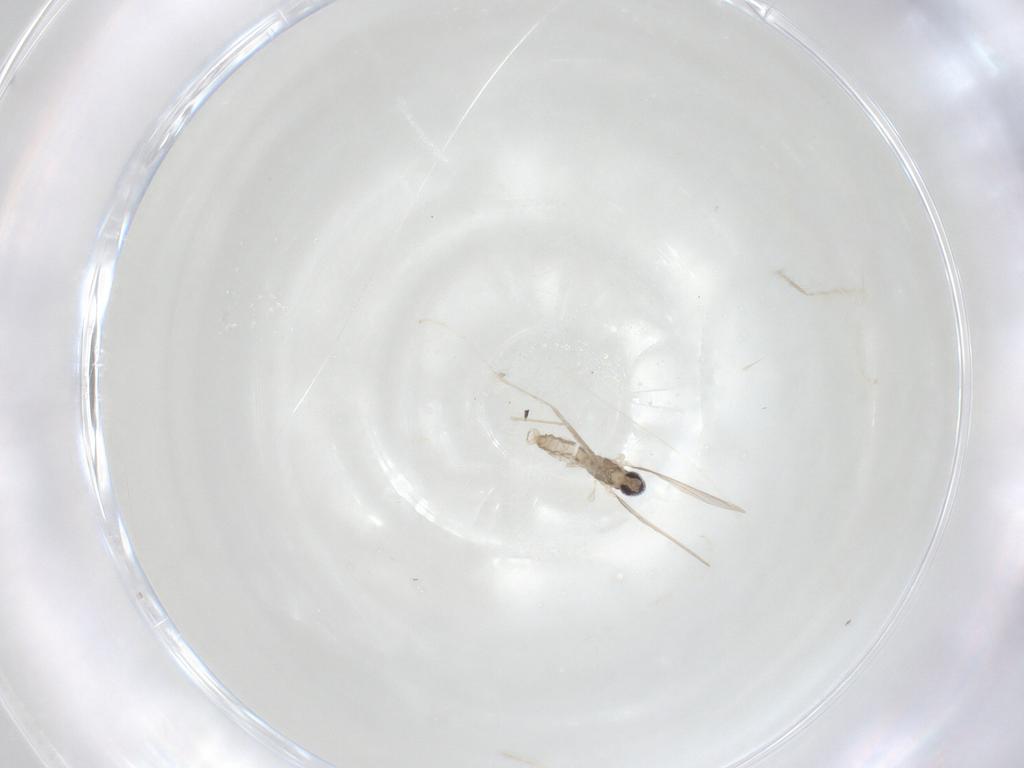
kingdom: Animalia
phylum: Arthropoda
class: Insecta
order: Diptera
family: Cecidomyiidae
